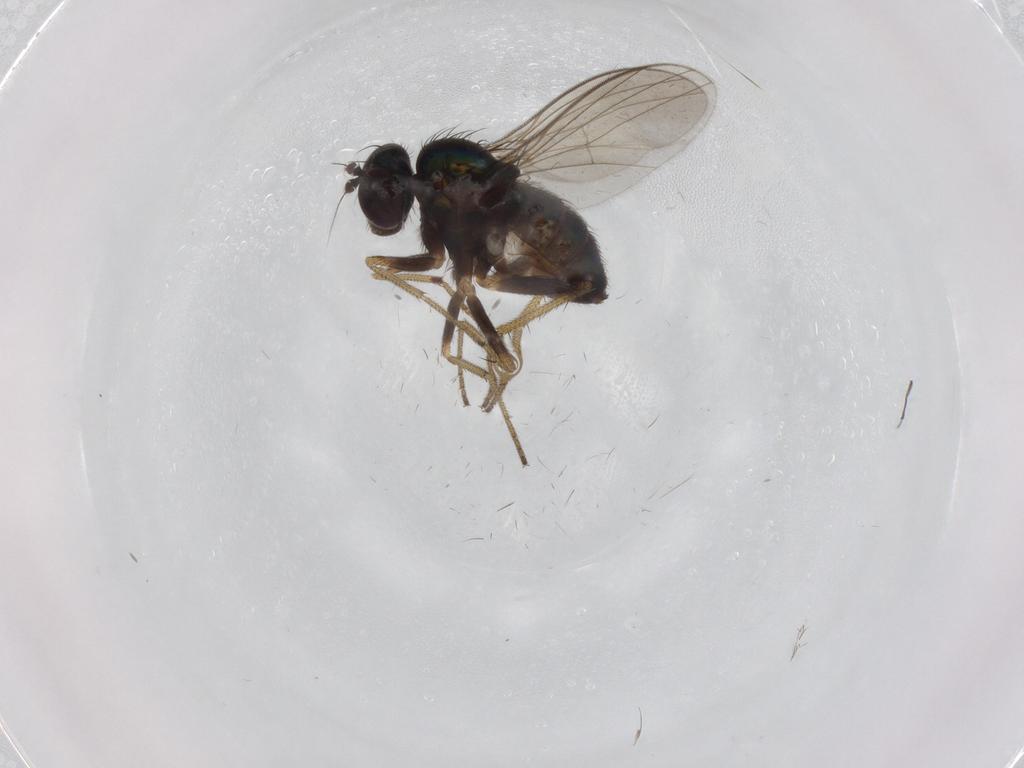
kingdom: Animalia
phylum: Arthropoda
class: Insecta
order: Diptera
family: Dolichopodidae
